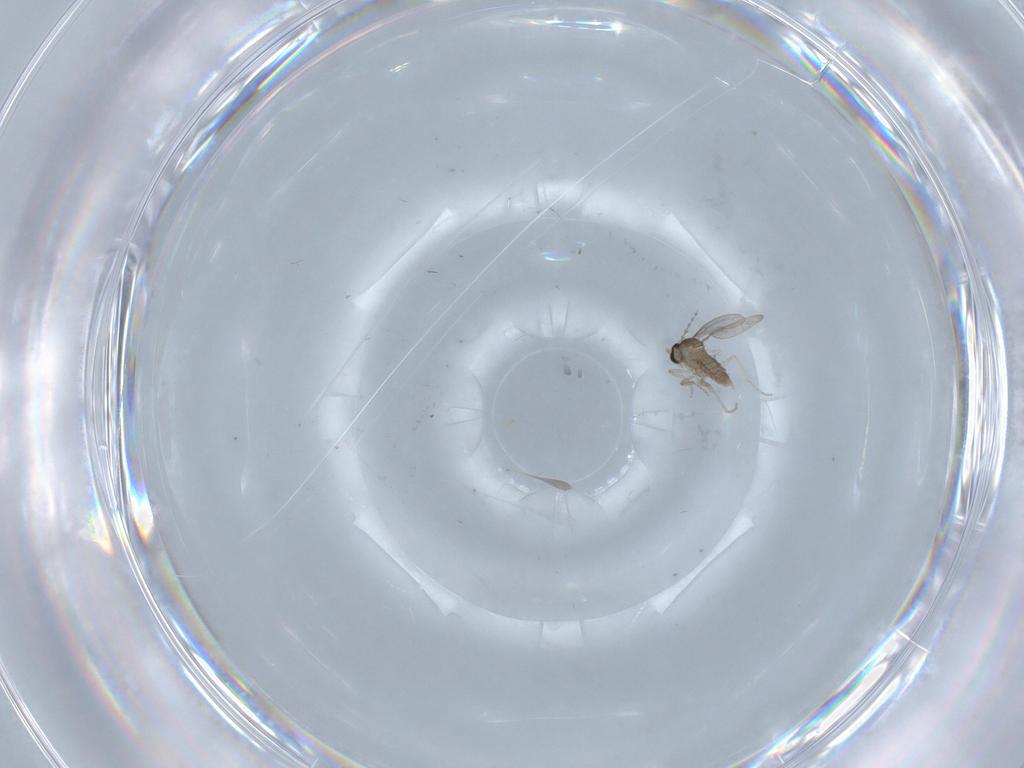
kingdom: Animalia
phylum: Arthropoda
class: Insecta
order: Diptera
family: Cecidomyiidae
